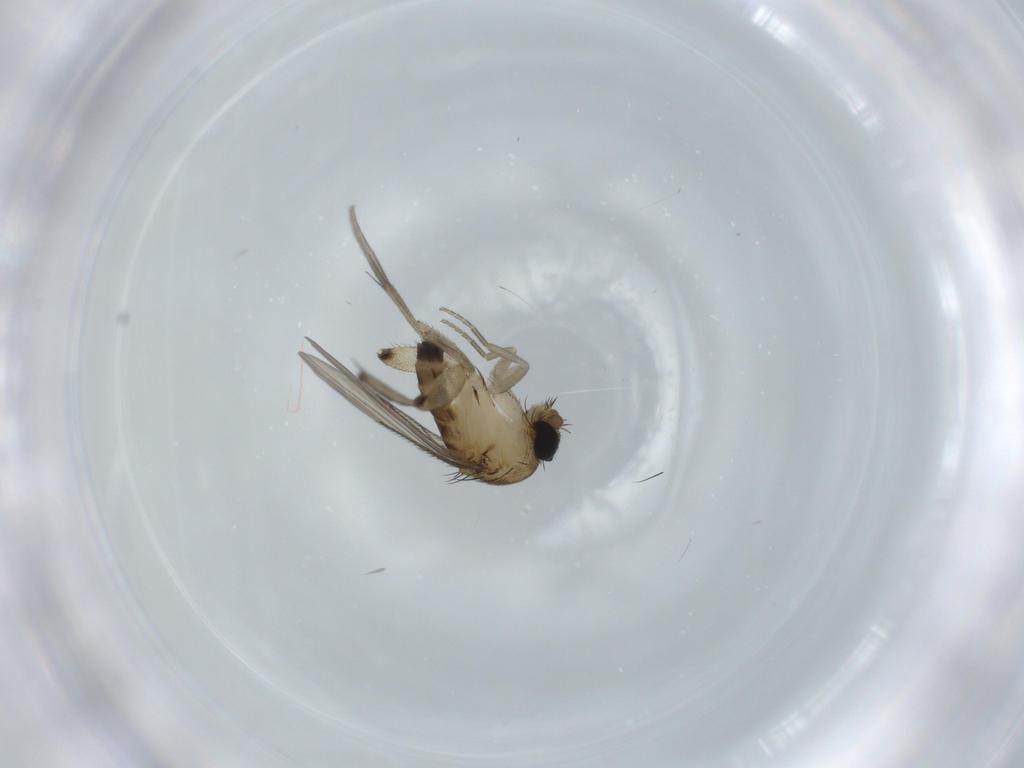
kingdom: Animalia
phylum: Arthropoda
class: Insecta
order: Diptera
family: Phoridae
